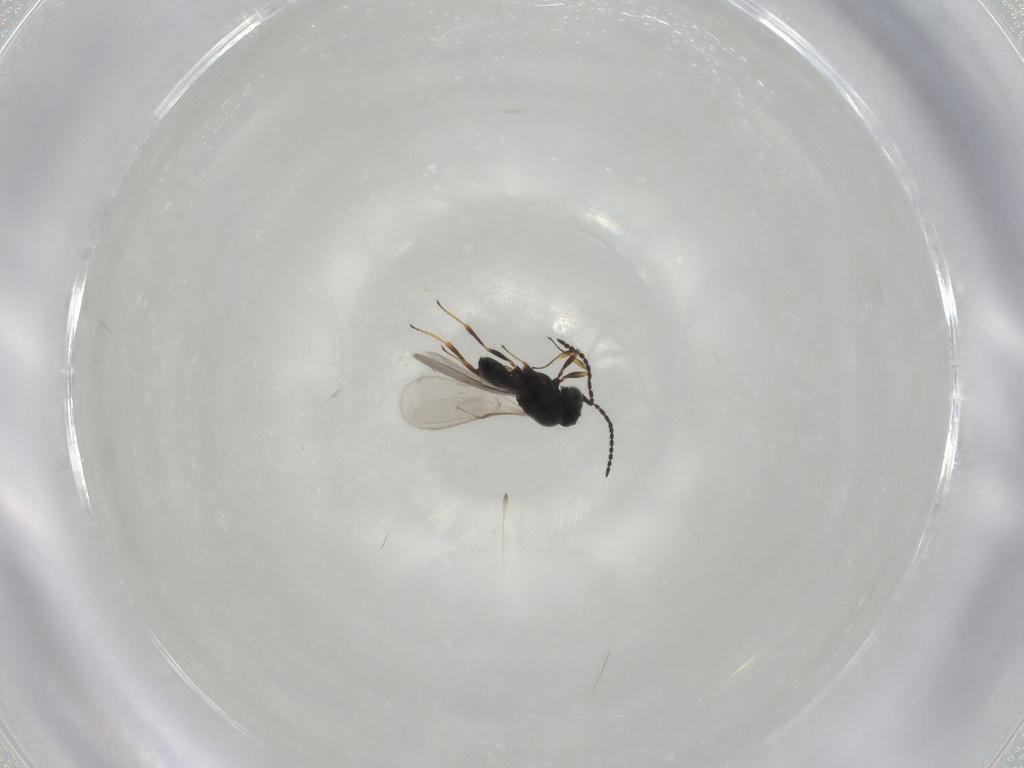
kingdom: Animalia
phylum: Arthropoda
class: Insecta
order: Hymenoptera
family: Scelionidae
